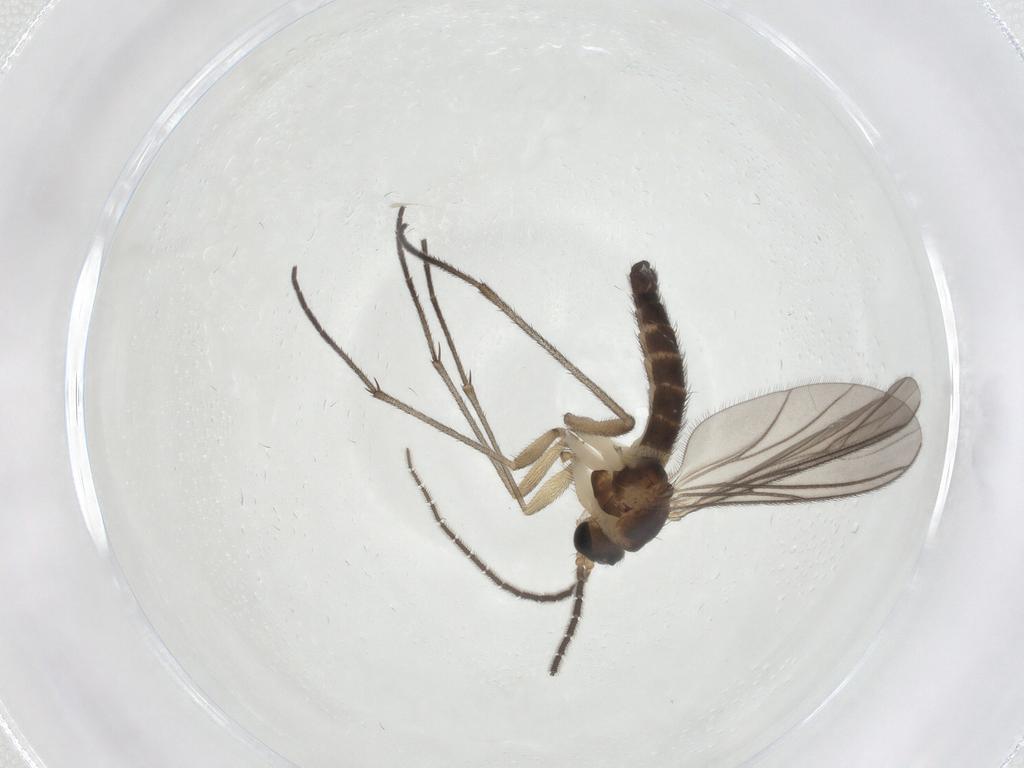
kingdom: Animalia
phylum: Arthropoda
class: Insecta
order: Diptera
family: Sciaridae
